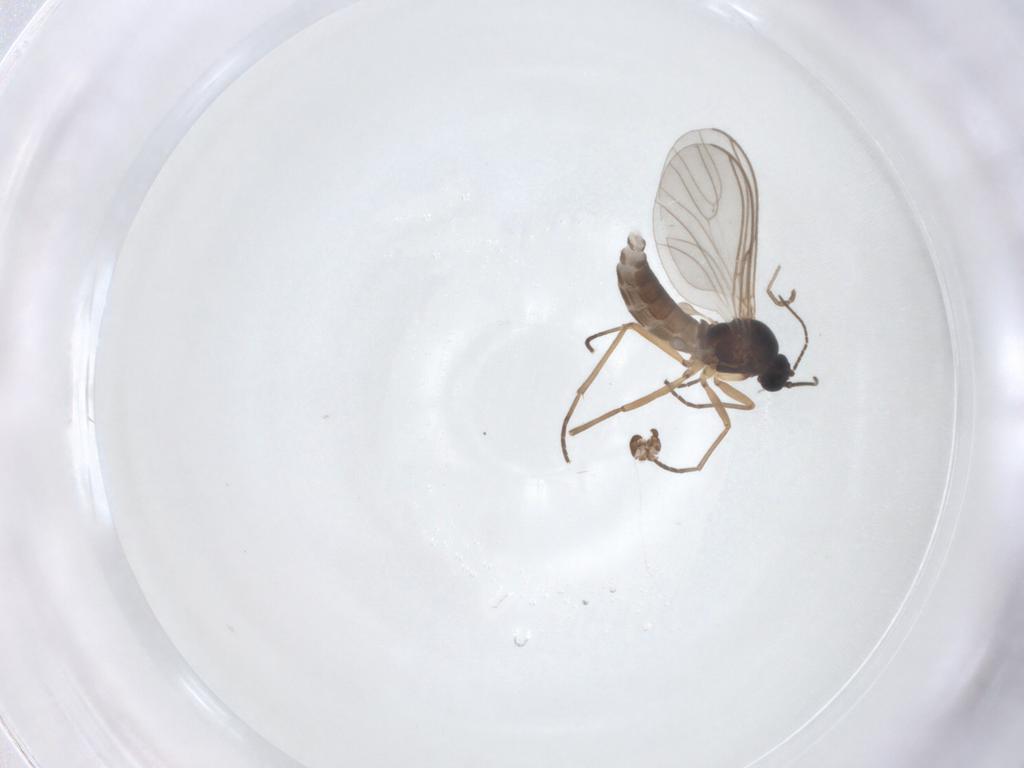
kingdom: Animalia
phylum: Arthropoda
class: Insecta
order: Diptera
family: Sciaridae
